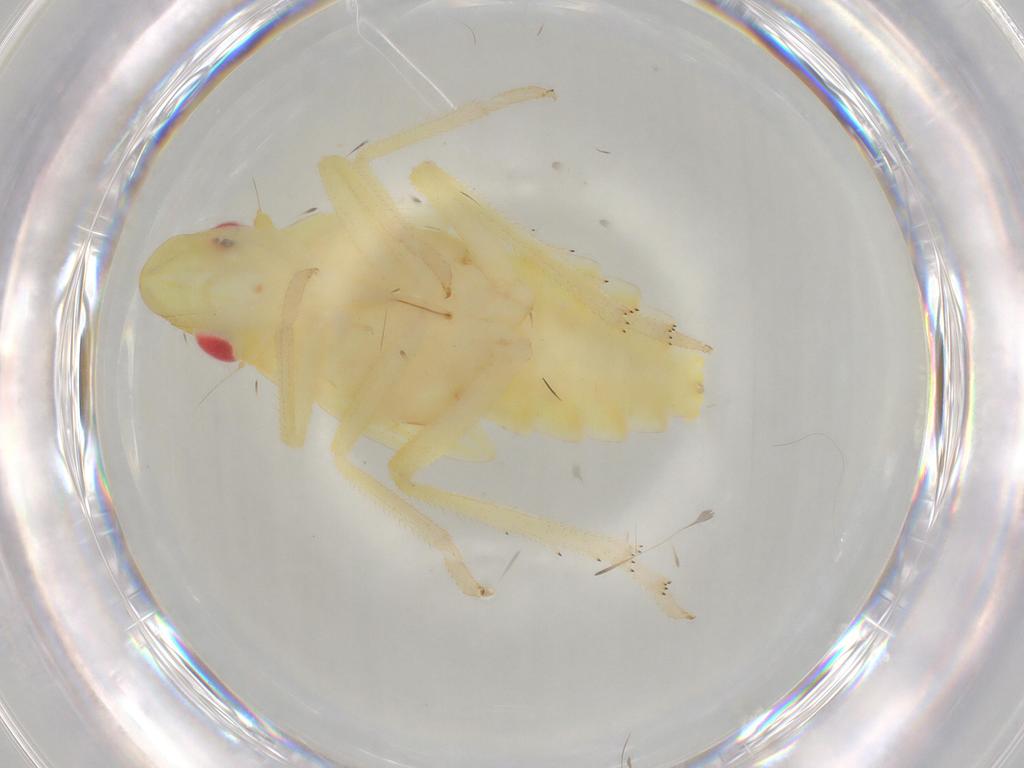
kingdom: Animalia
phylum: Arthropoda
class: Insecta
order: Hemiptera
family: Tropiduchidae
